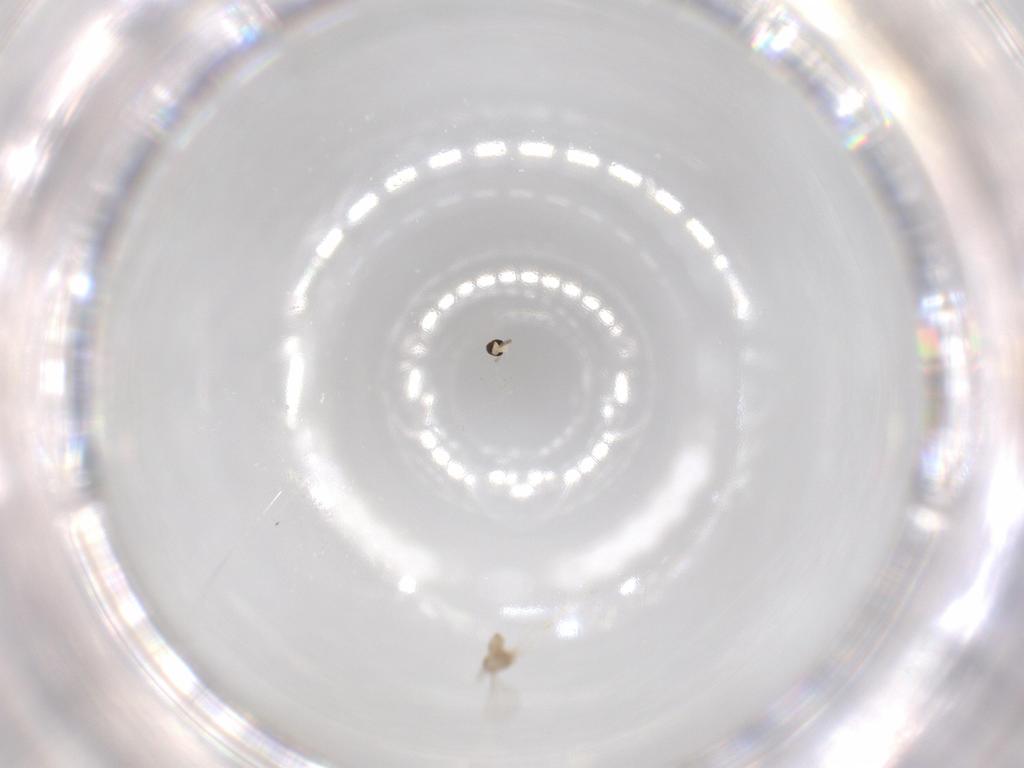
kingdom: Animalia
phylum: Arthropoda
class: Insecta
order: Diptera
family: Cecidomyiidae
